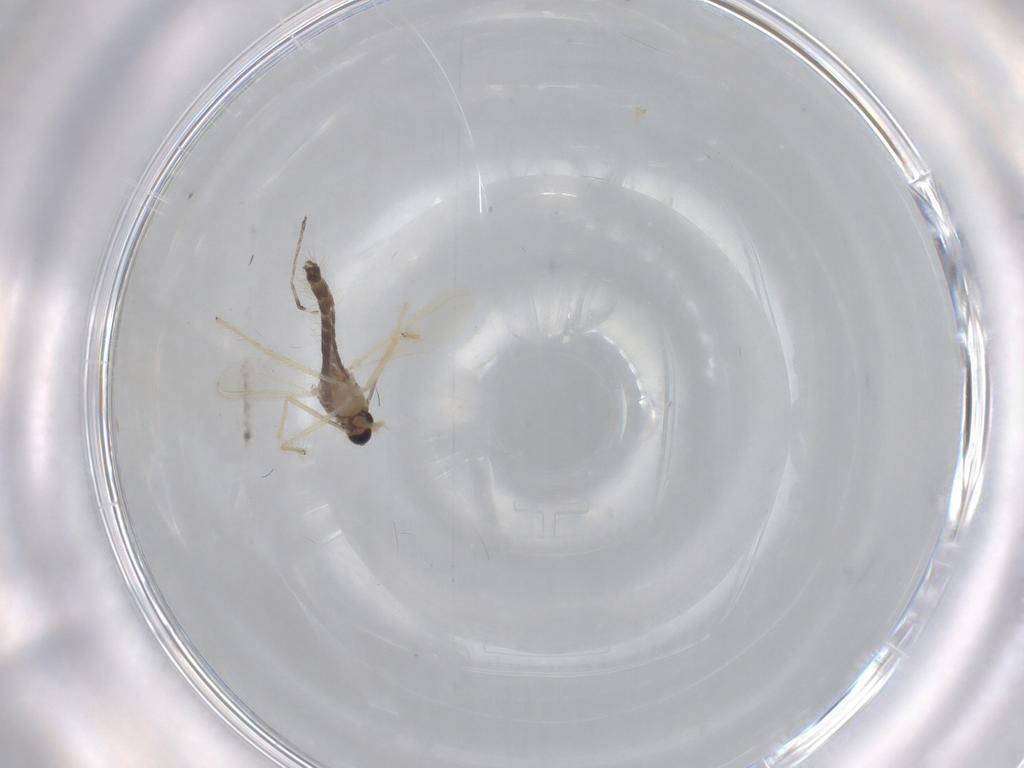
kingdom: Animalia
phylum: Arthropoda
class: Insecta
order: Diptera
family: Chironomidae
